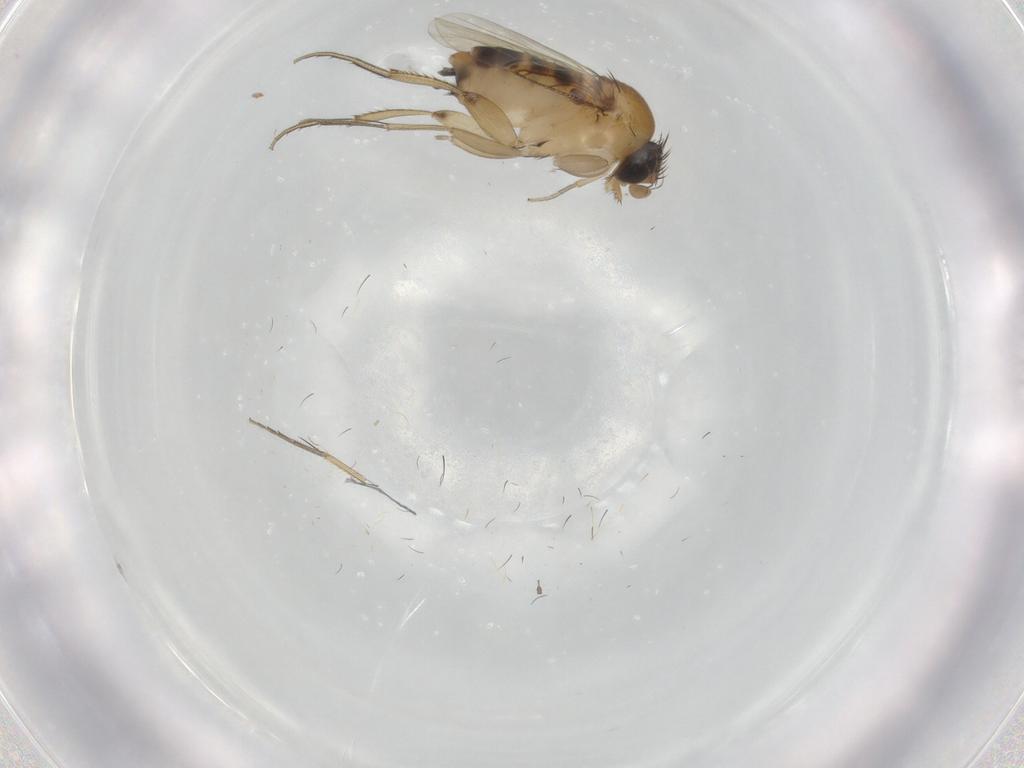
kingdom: Animalia
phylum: Arthropoda
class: Insecta
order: Diptera
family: Phoridae
